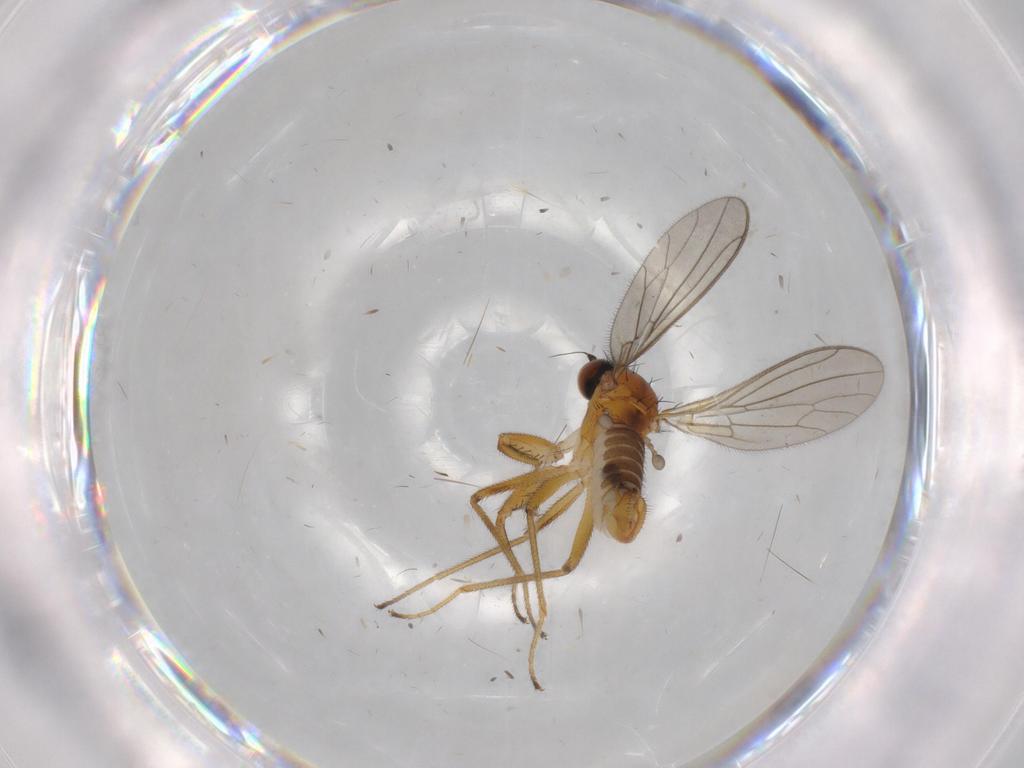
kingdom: Animalia
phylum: Arthropoda
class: Insecta
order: Diptera
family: Empididae
